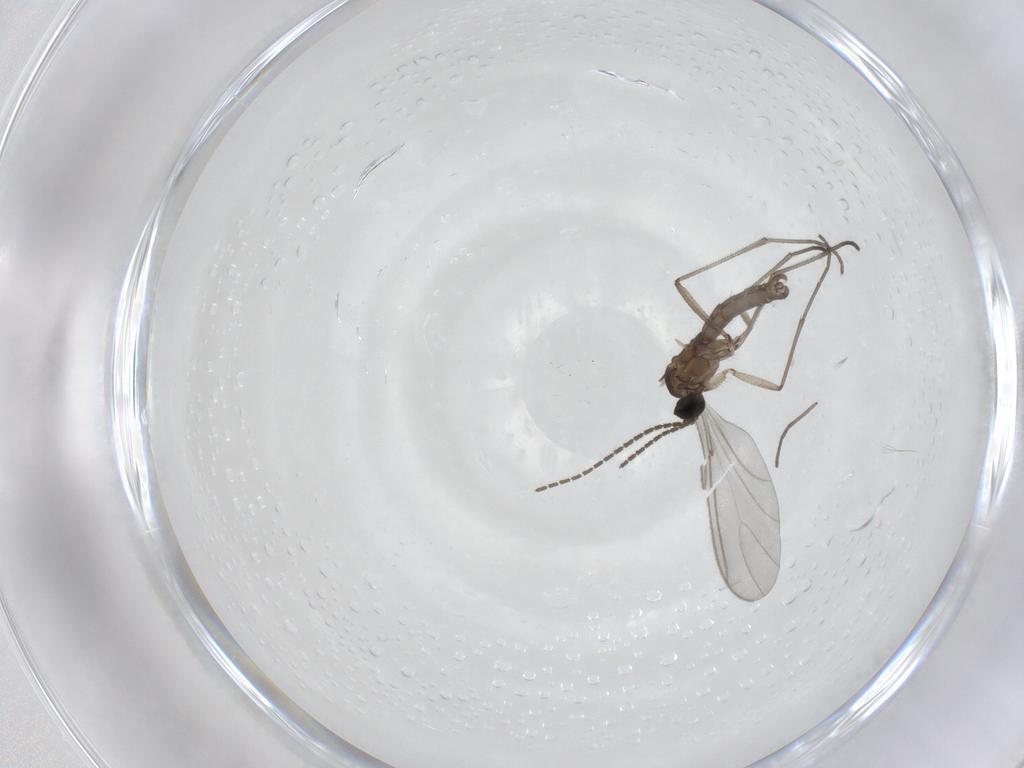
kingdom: Animalia
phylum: Arthropoda
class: Insecta
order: Diptera
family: Sciaridae
